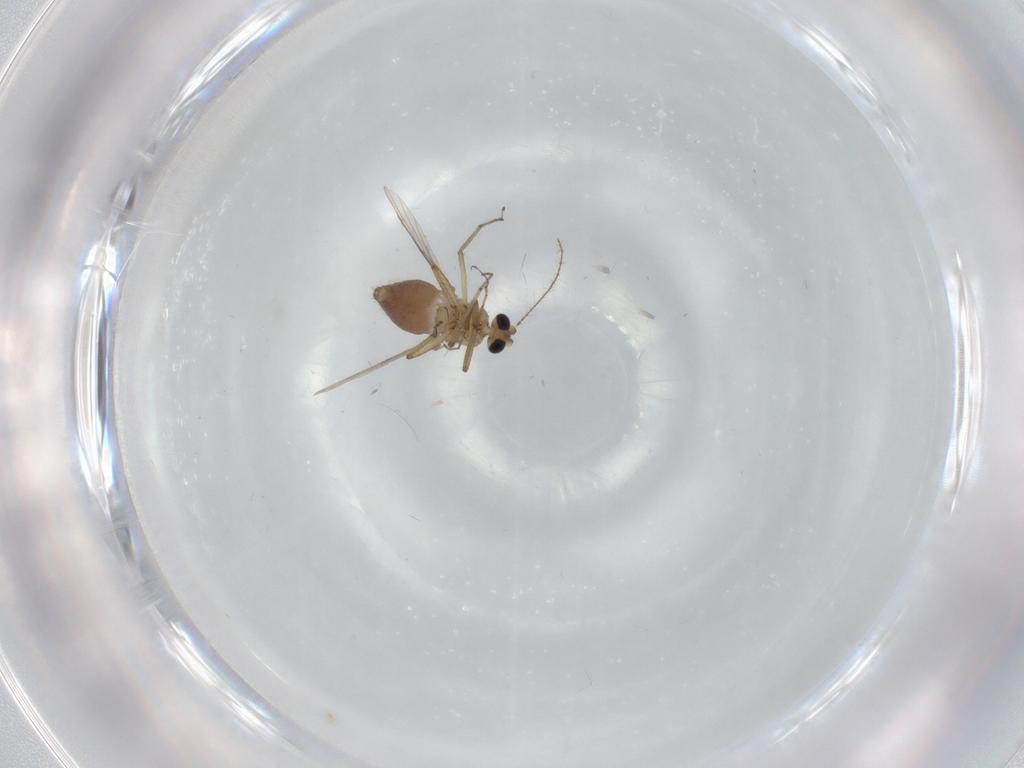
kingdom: Animalia
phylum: Arthropoda
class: Insecta
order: Diptera
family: Ceratopogonidae
